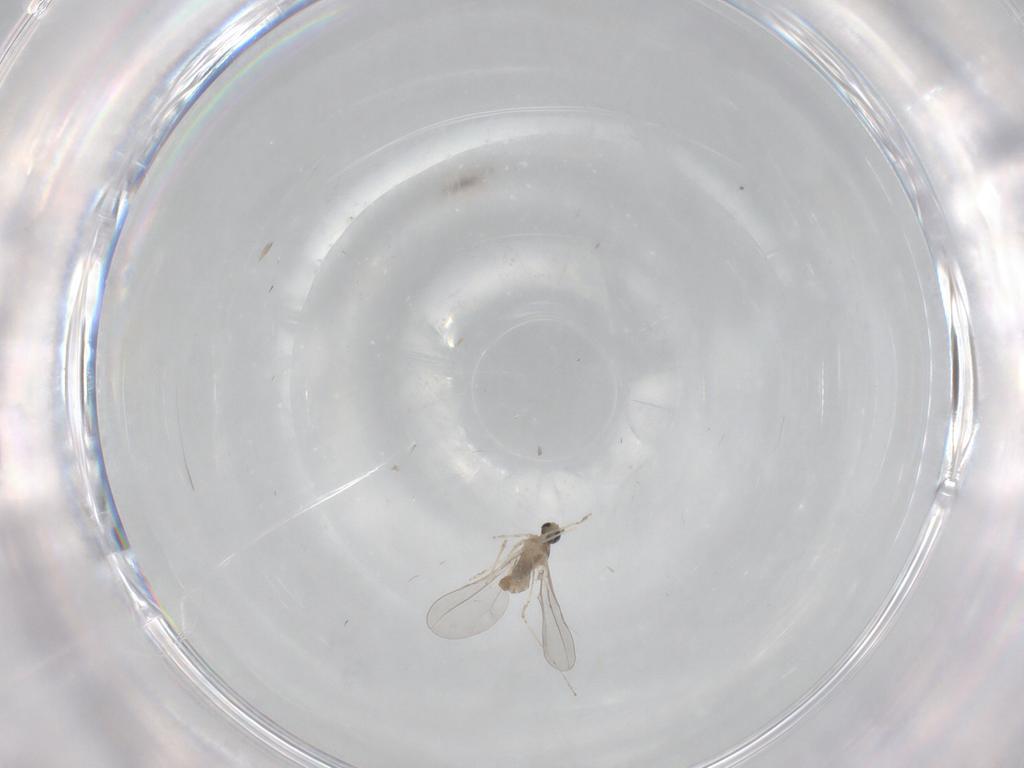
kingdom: Animalia
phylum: Arthropoda
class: Insecta
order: Diptera
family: Cecidomyiidae
